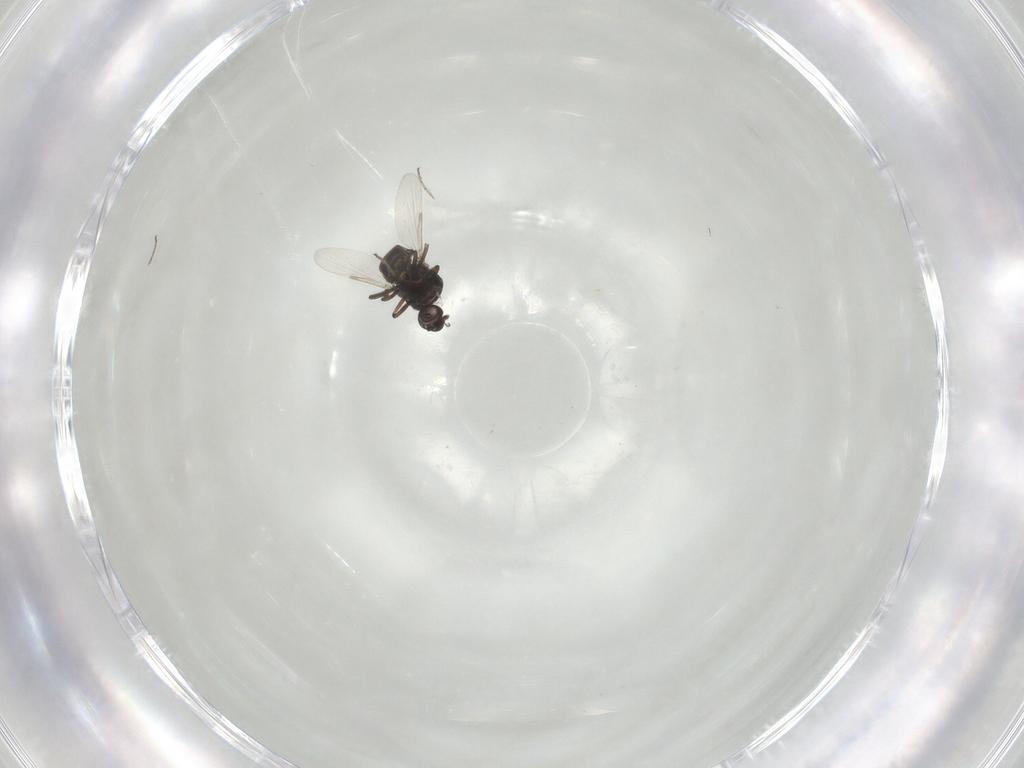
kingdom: Animalia
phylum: Arthropoda
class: Insecta
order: Diptera
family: Ceratopogonidae
